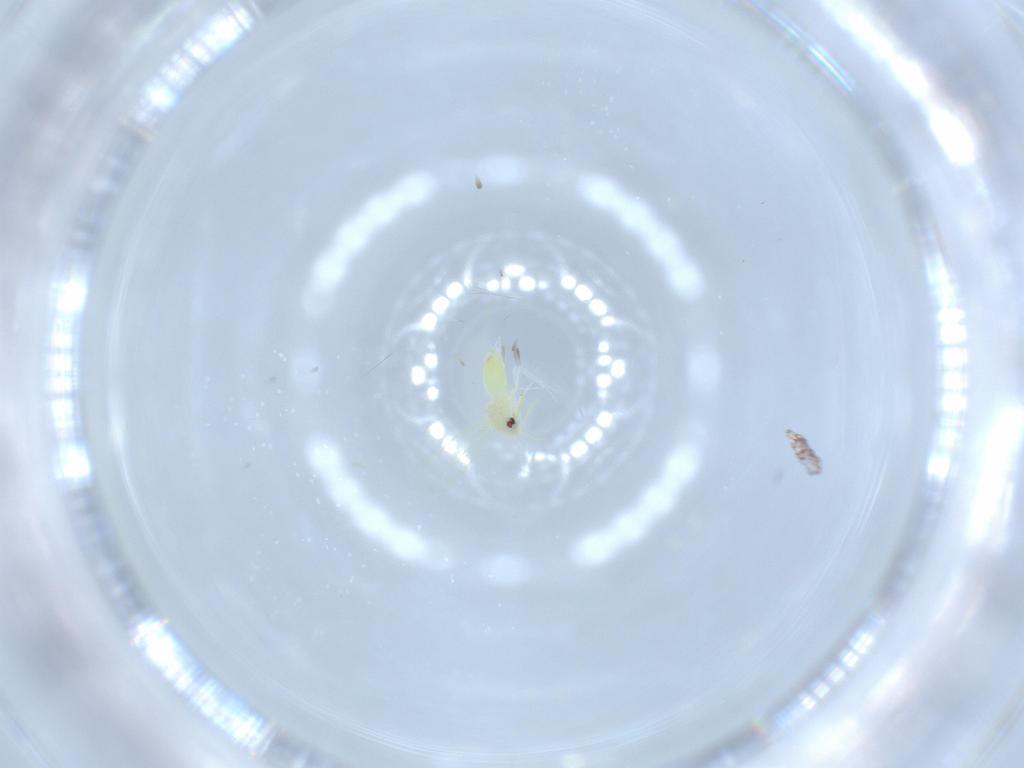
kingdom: Animalia
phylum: Arthropoda
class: Insecta
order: Hemiptera
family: Aleyrodidae
